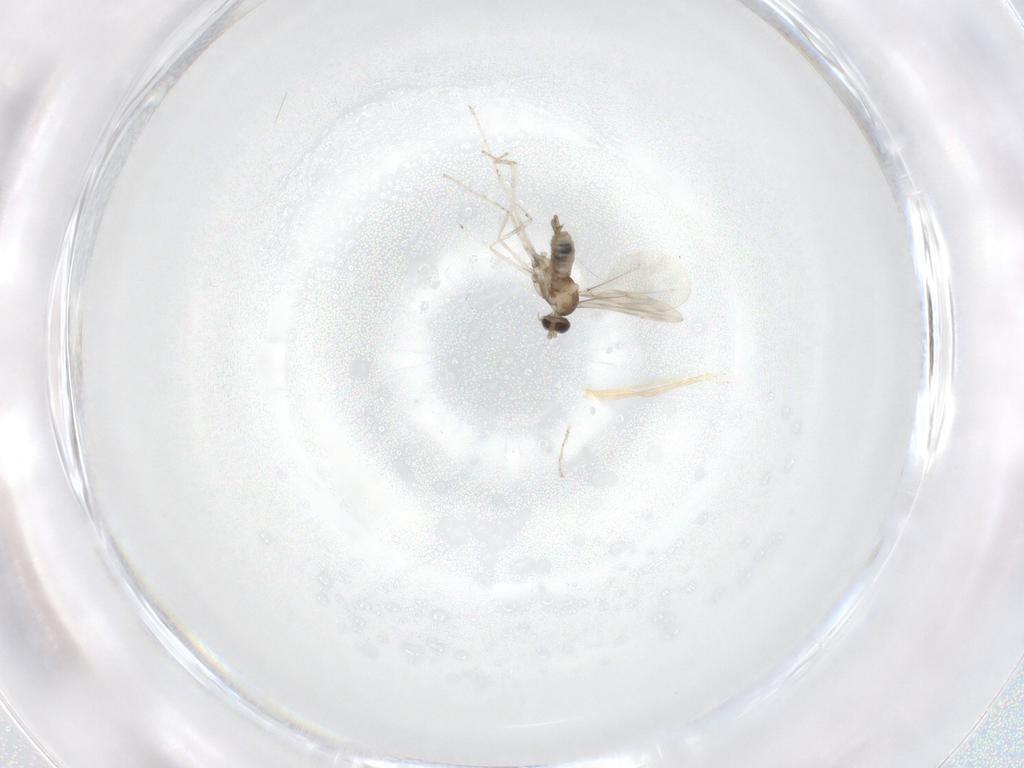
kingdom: Animalia
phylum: Arthropoda
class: Insecta
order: Diptera
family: Cecidomyiidae
